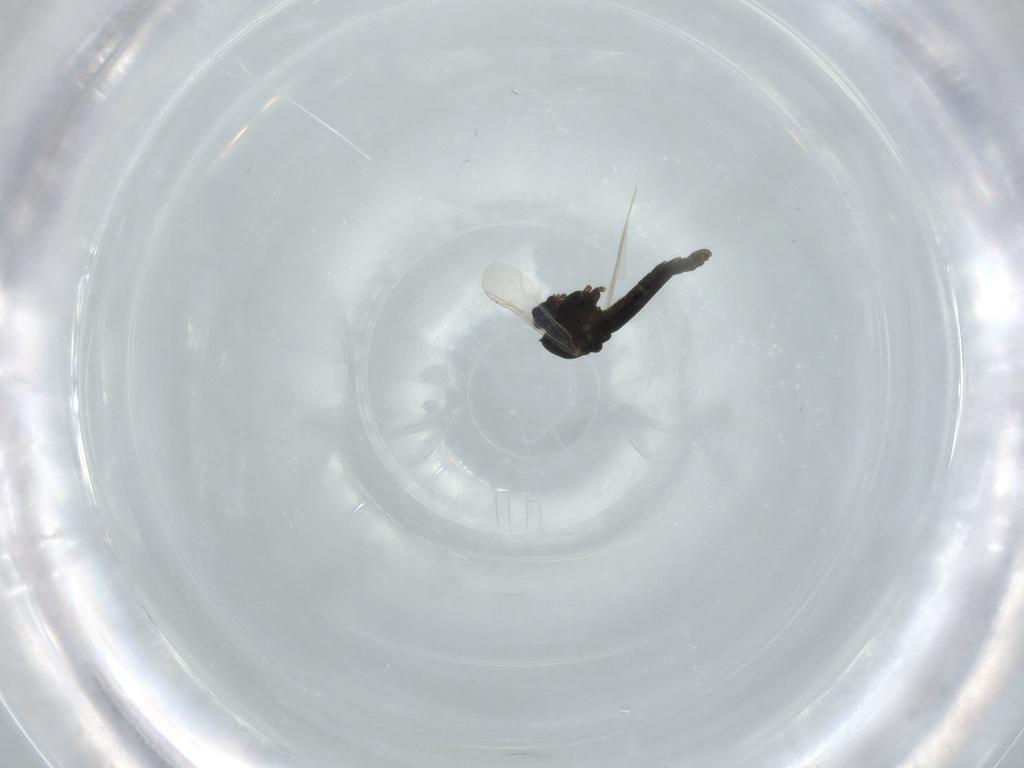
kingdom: Animalia
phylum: Arthropoda
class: Insecta
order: Diptera
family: Chironomidae
